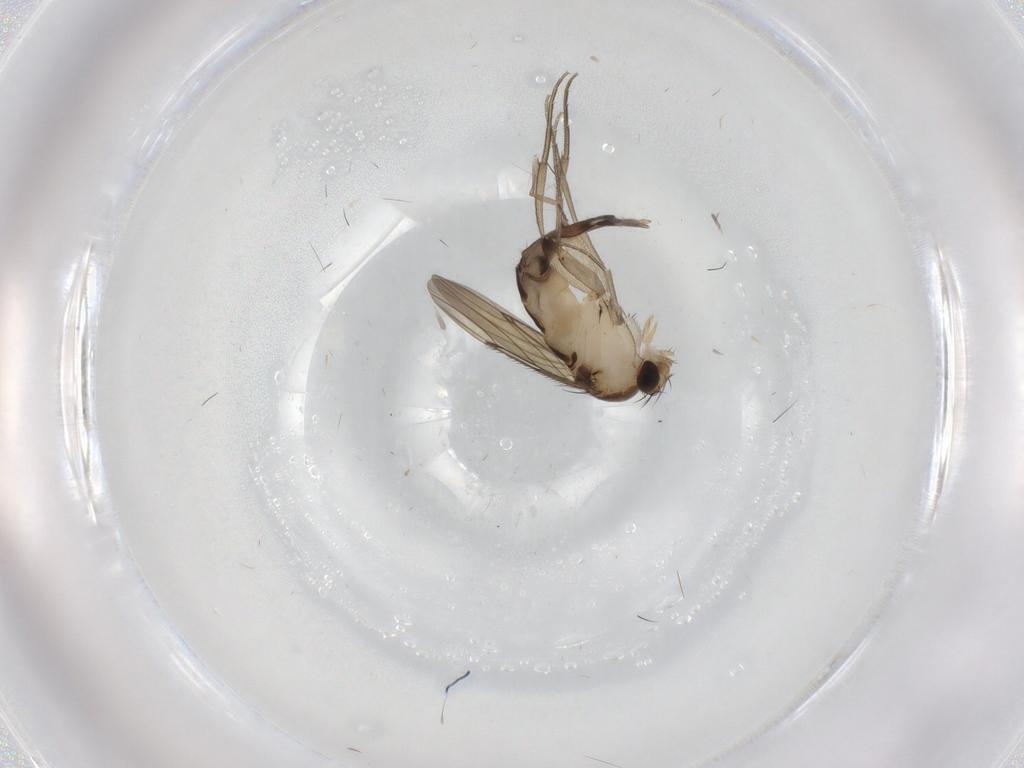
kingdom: Animalia
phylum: Arthropoda
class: Insecta
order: Diptera
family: Phoridae
